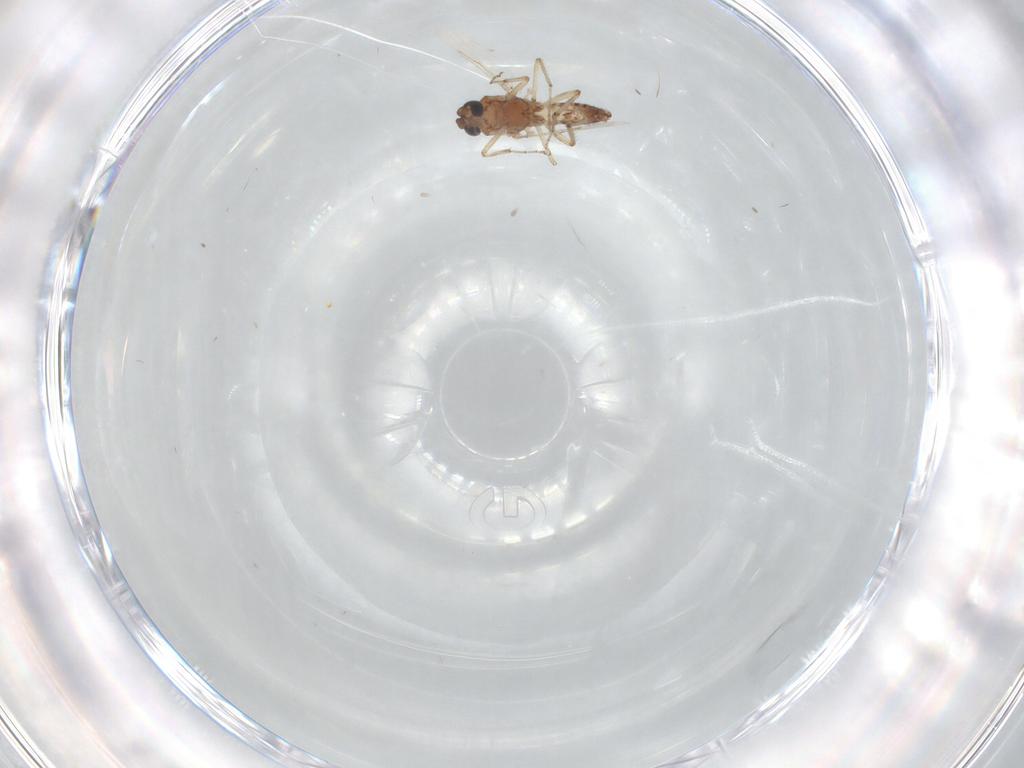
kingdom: Animalia
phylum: Arthropoda
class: Insecta
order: Diptera
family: Ceratopogonidae
